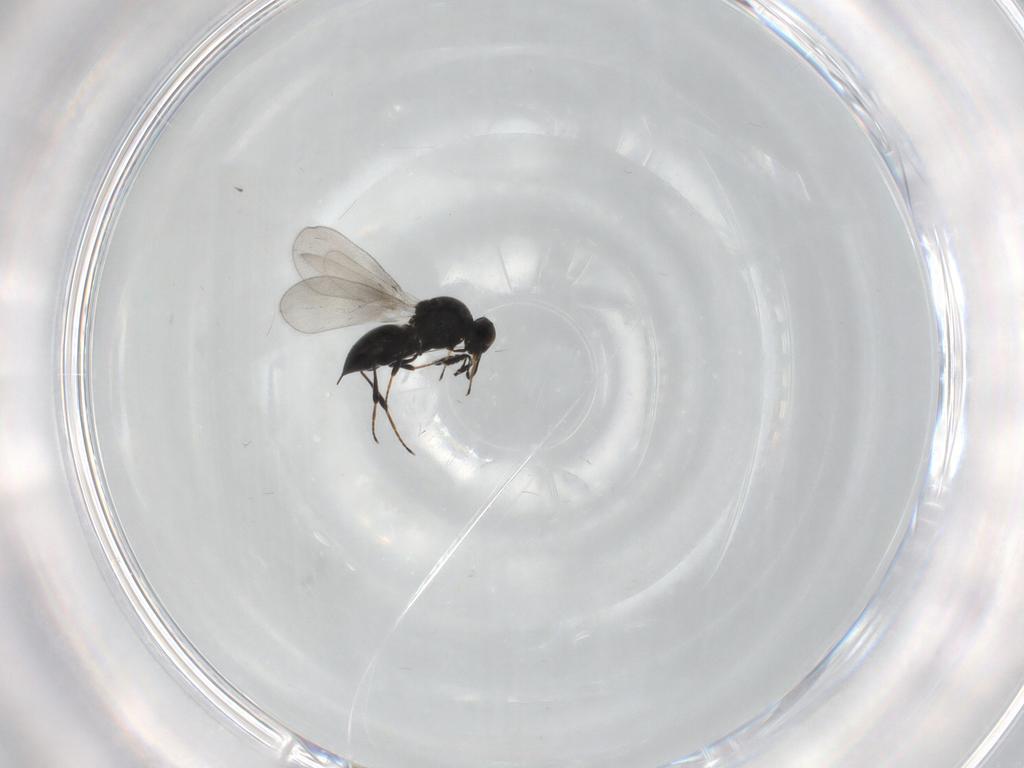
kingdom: Animalia
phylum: Arthropoda
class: Insecta
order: Hymenoptera
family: Platygastridae
